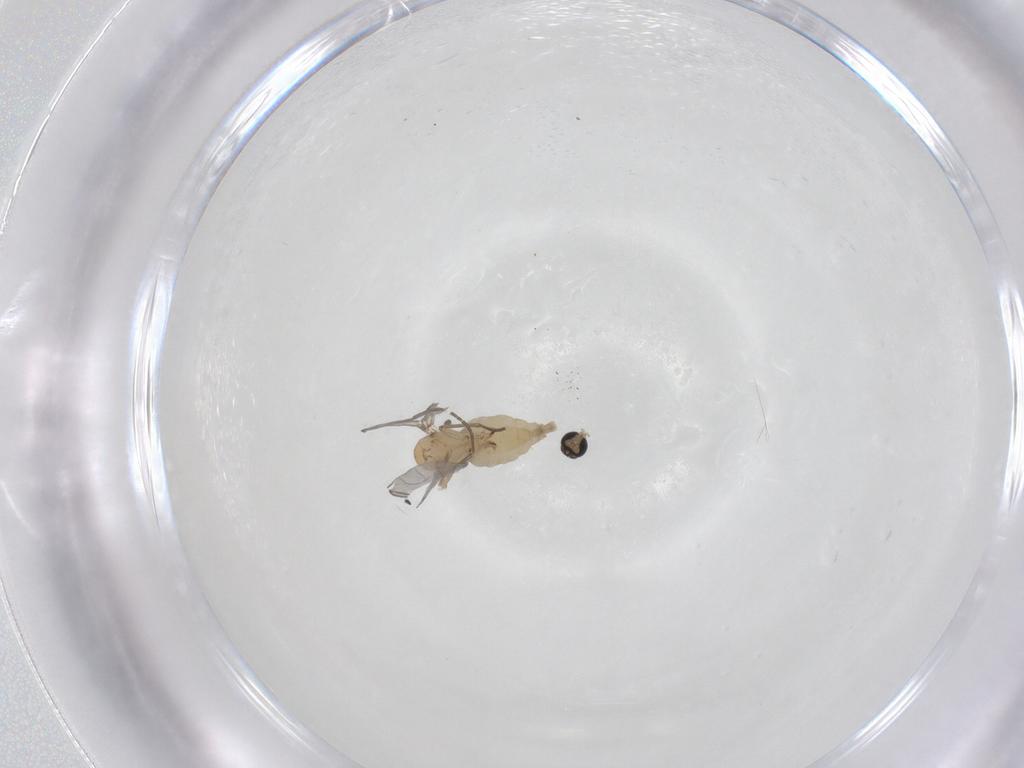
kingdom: Animalia
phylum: Arthropoda
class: Insecta
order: Diptera
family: Sciaridae
